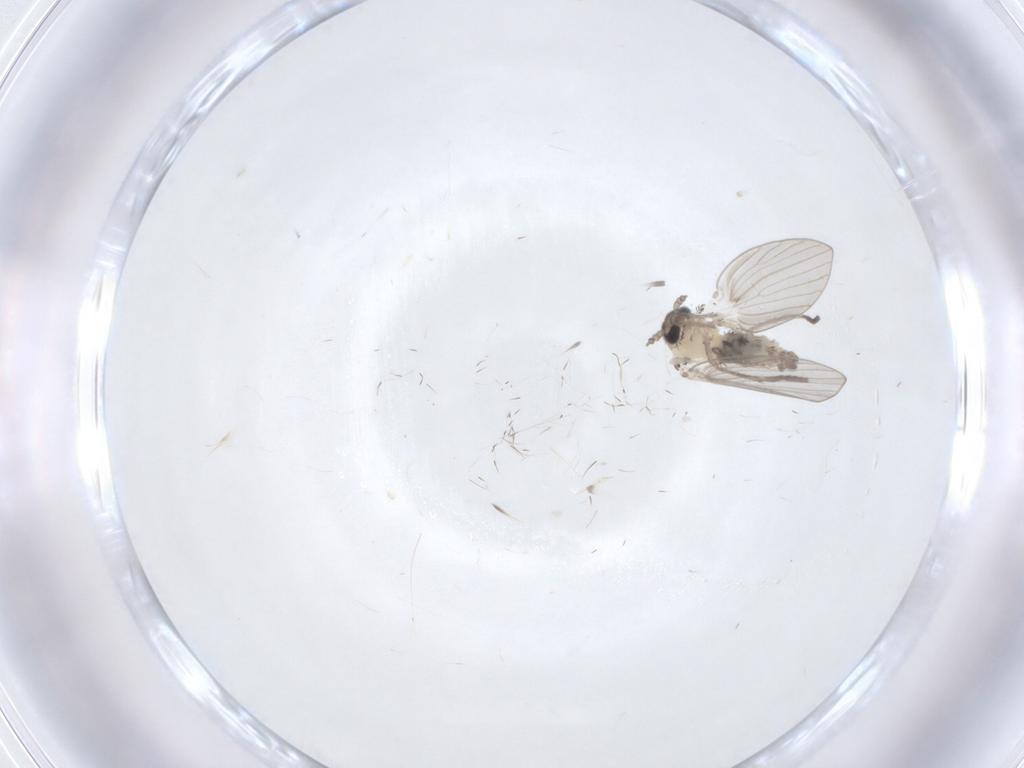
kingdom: Animalia
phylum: Arthropoda
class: Insecta
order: Diptera
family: Psychodidae
